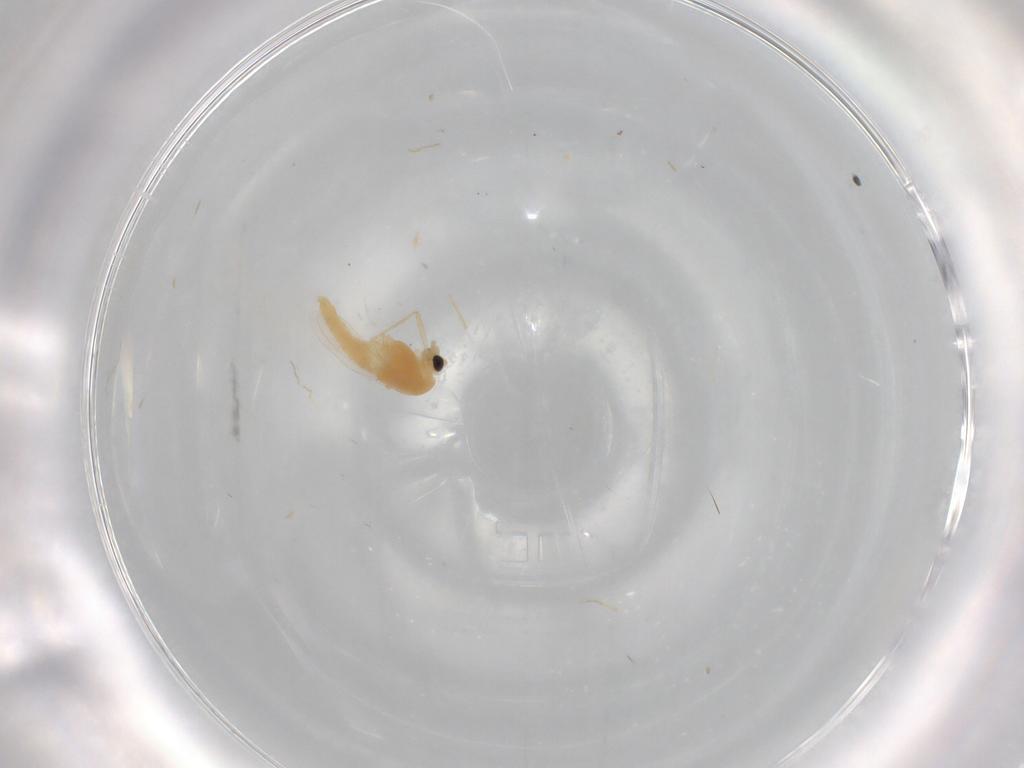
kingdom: Animalia
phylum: Arthropoda
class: Insecta
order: Diptera
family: Chironomidae
